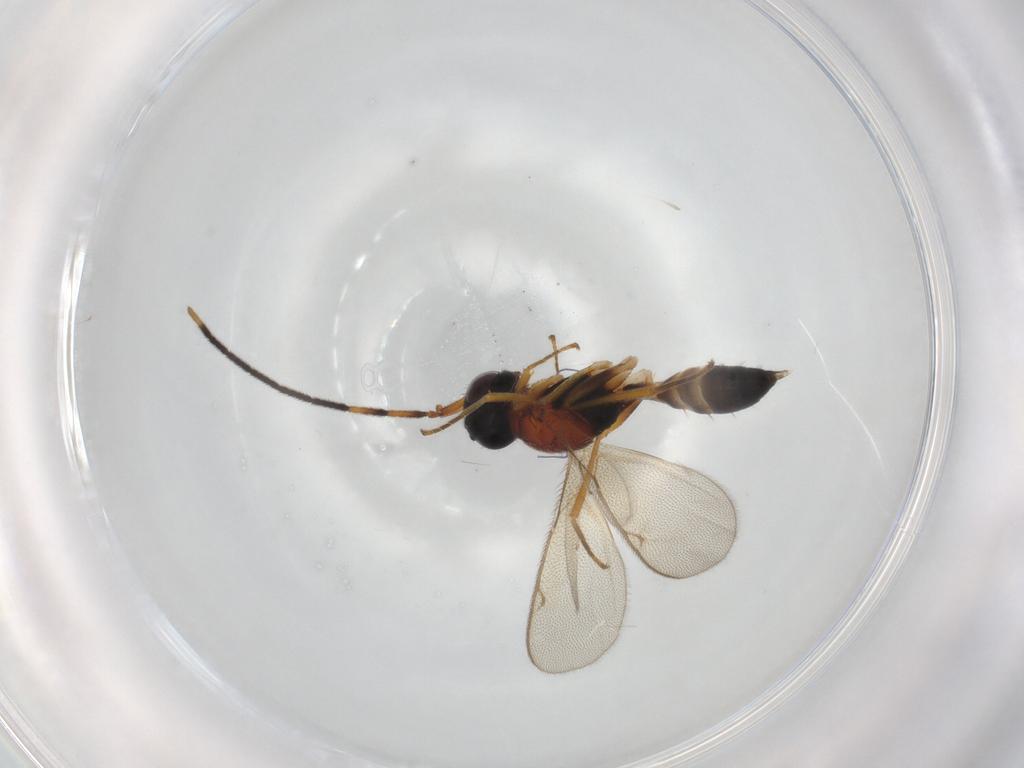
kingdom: Animalia
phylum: Arthropoda
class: Insecta
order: Hymenoptera
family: Pteromalidae
